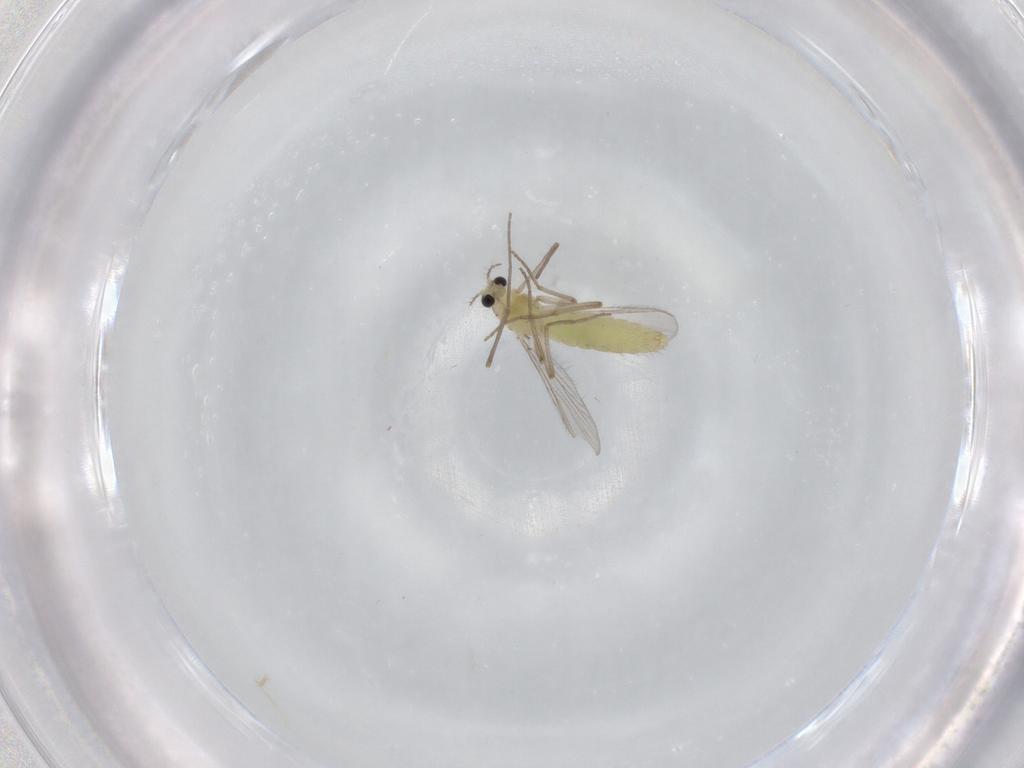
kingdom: Animalia
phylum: Arthropoda
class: Insecta
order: Diptera
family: Chironomidae
